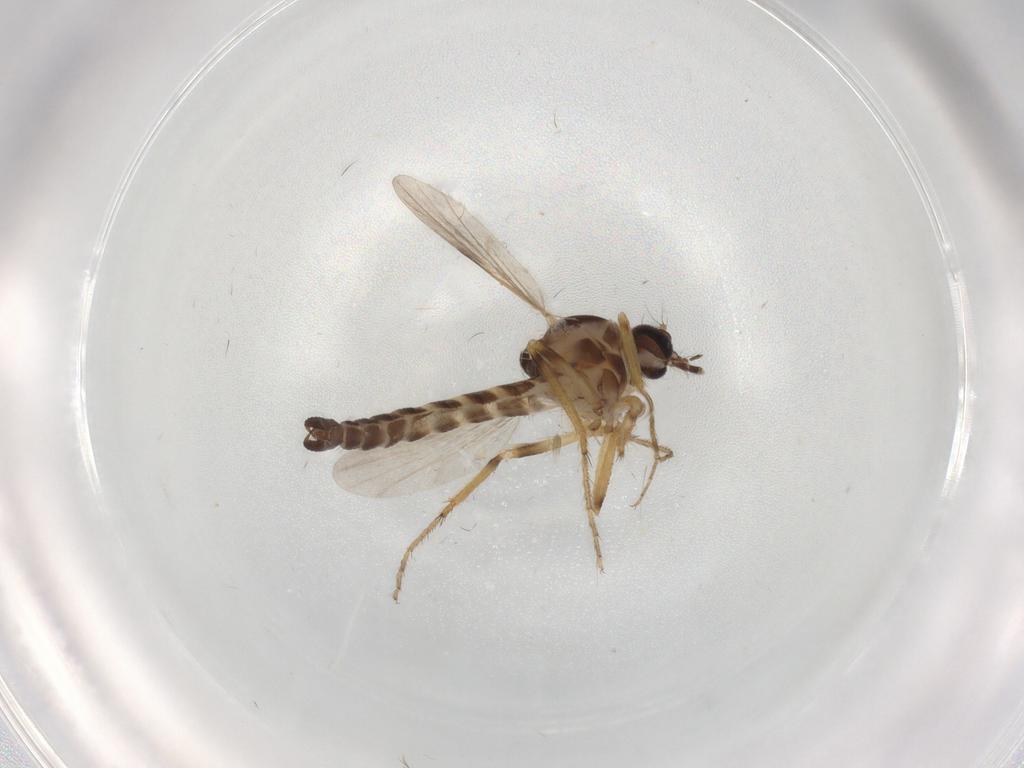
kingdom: Animalia
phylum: Arthropoda
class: Insecta
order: Diptera
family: Ceratopogonidae
